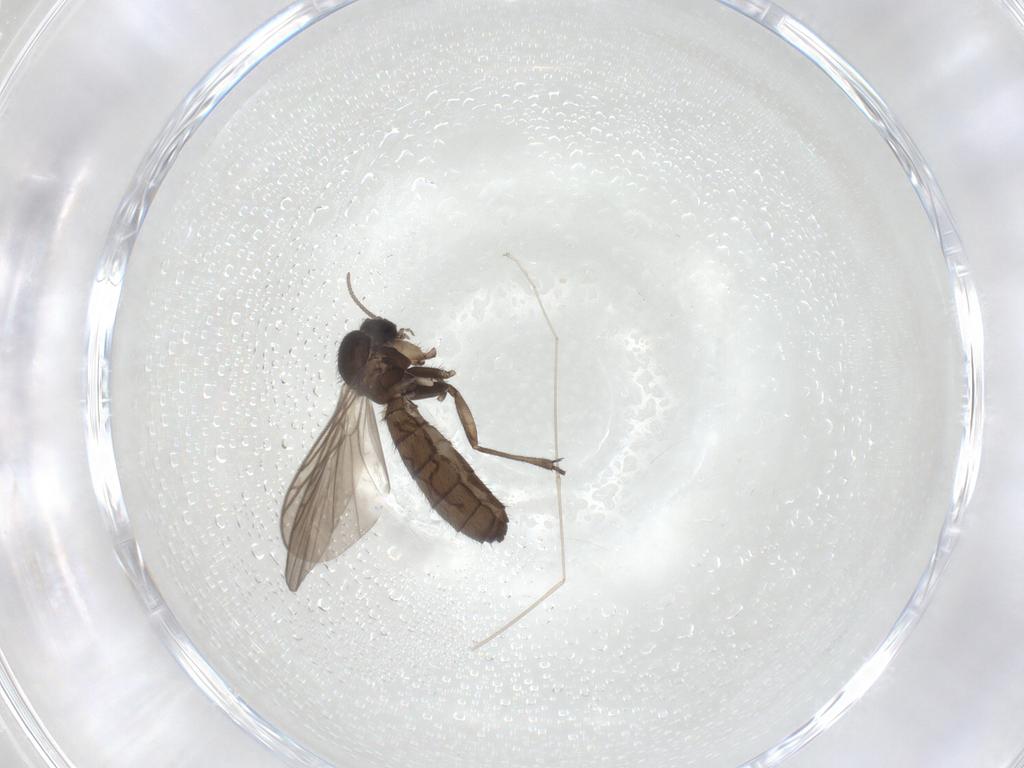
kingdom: Animalia
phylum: Arthropoda
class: Insecta
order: Diptera
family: Keroplatidae
